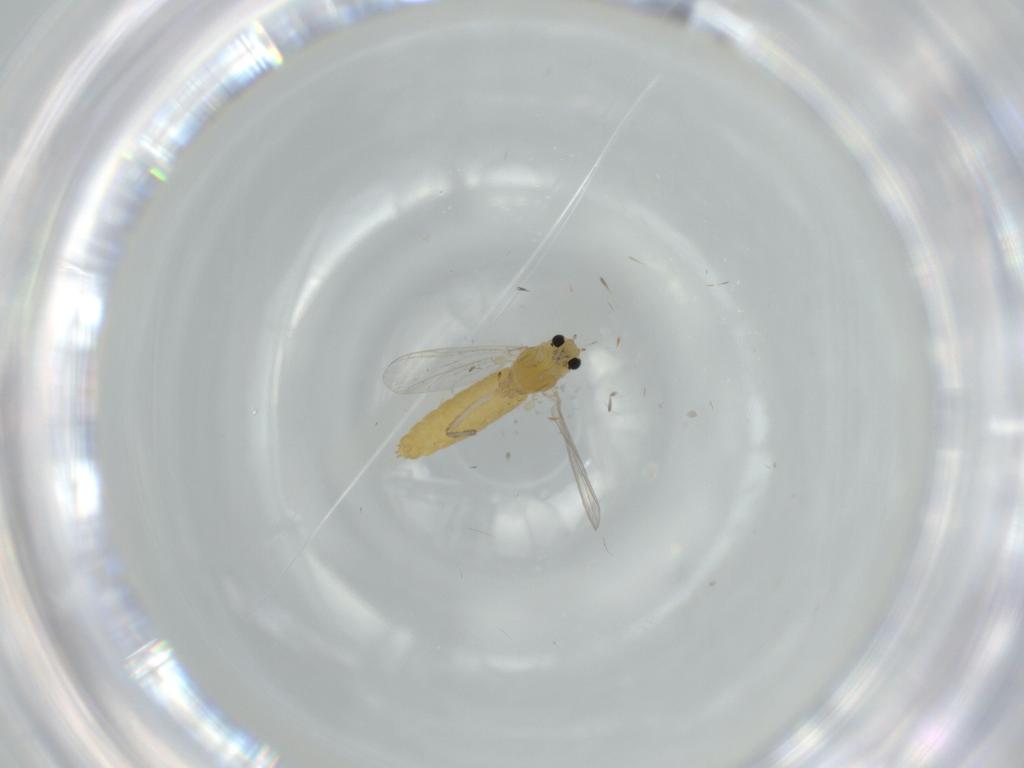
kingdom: Animalia
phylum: Arthropoda
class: Insecta
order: Diptera
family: Chironomidae
